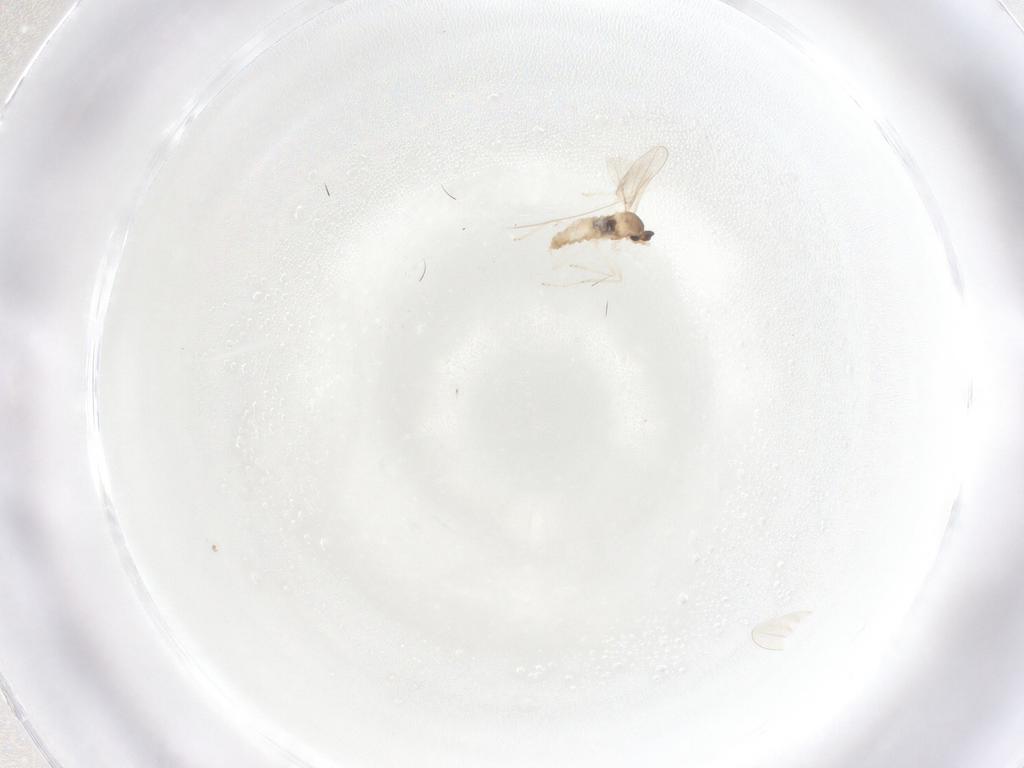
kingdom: Animalia
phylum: Arthropoda
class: Insecta
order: Diptera
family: Cecidomyiidae
